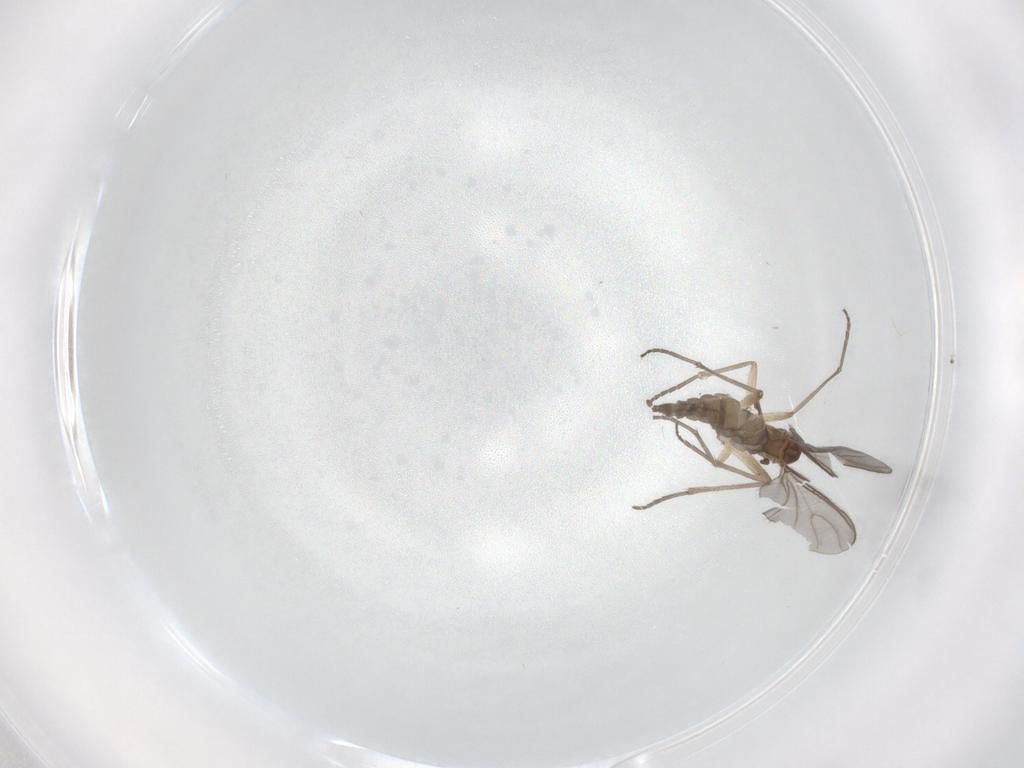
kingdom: Animalia
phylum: Arthropoda
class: Insecta
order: Diptera
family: Sciaridae
